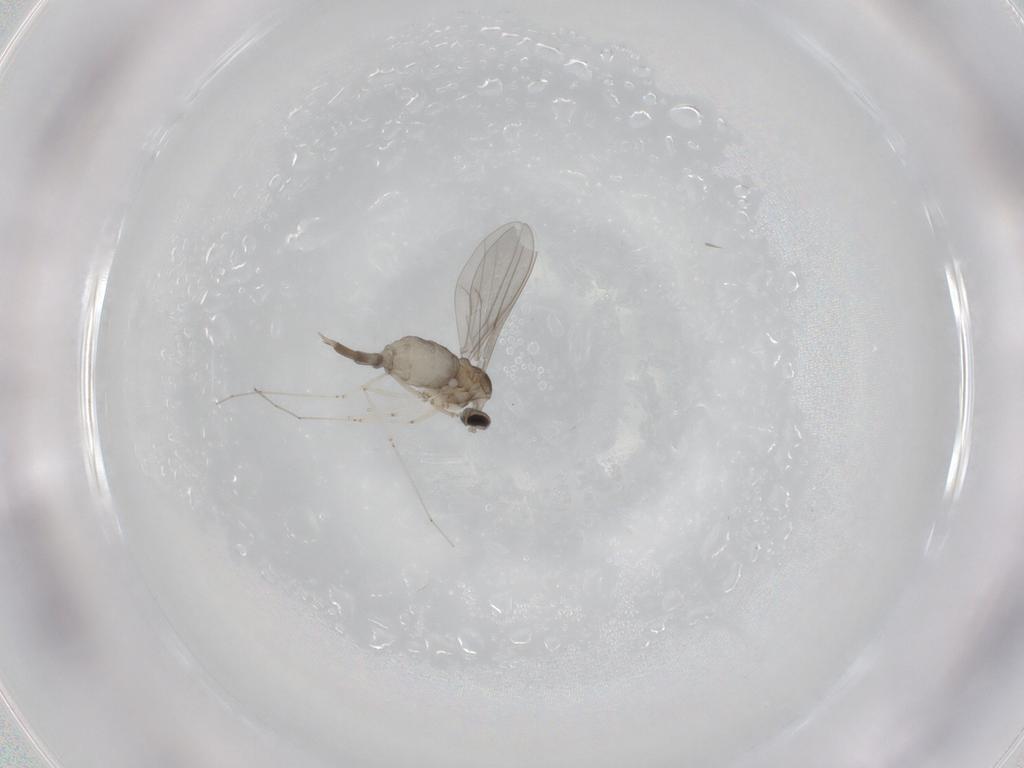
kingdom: Animalia
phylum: Arthropoda
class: Insecta
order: Diptera
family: Cecidomyiidae
